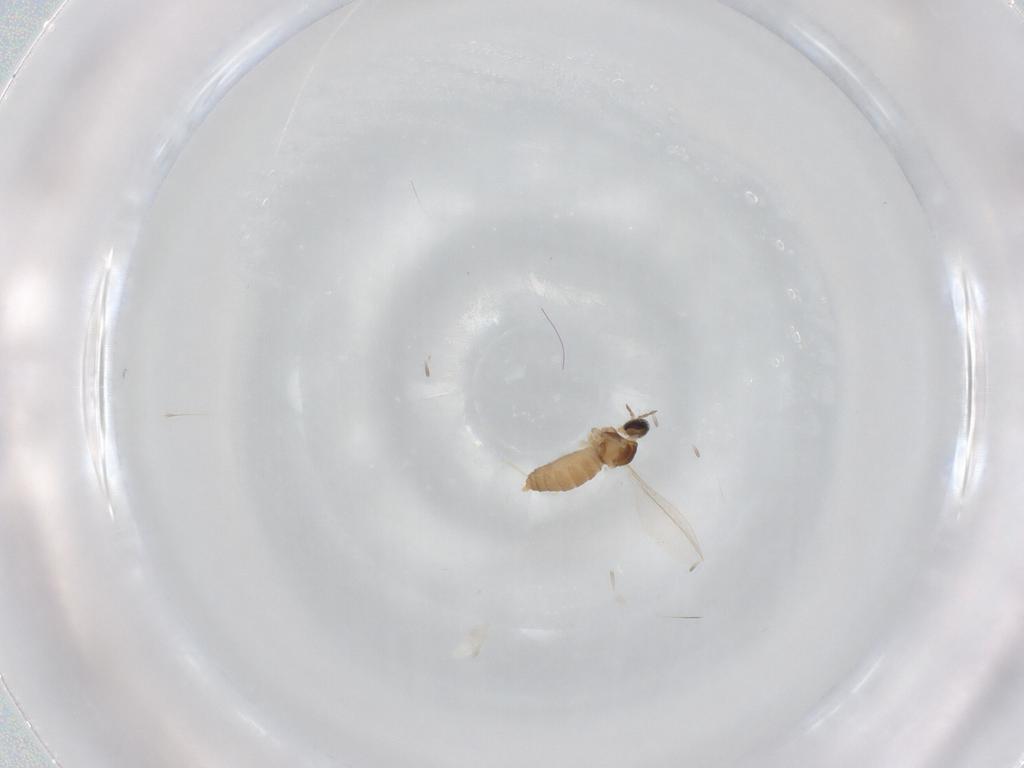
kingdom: Animalia
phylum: Arthropoda
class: Insecta
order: Diptera
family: Cecidomyiidae
